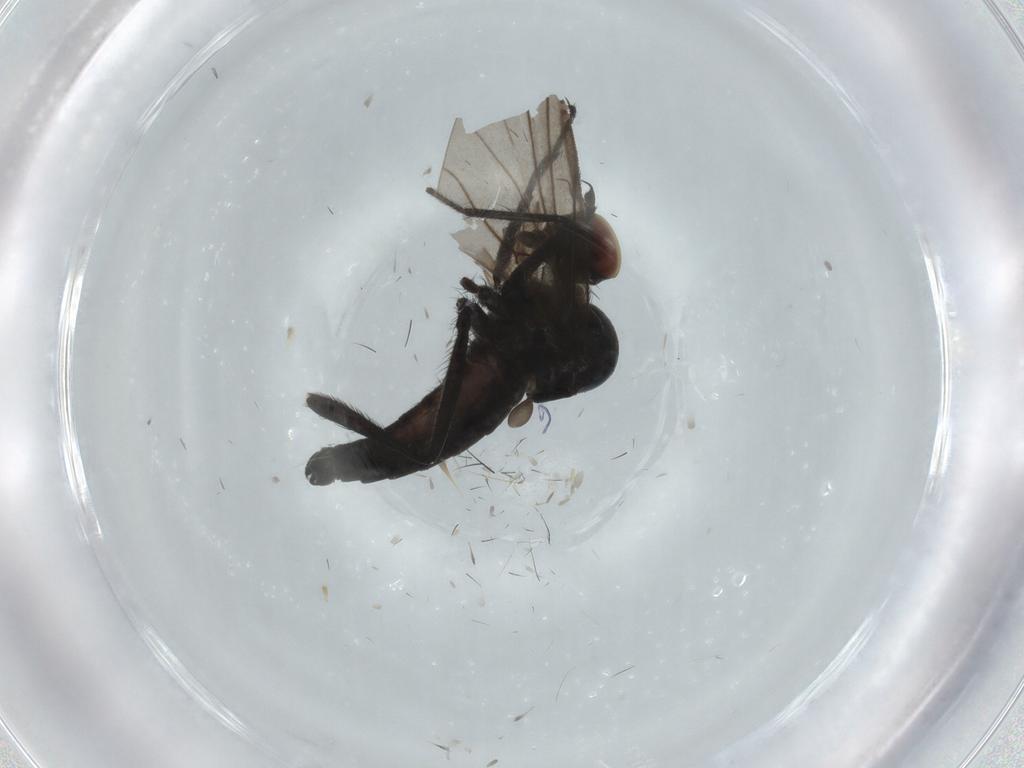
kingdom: Animalia
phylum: Arthropoda
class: Insecta
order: Diptera
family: Hybotidae
